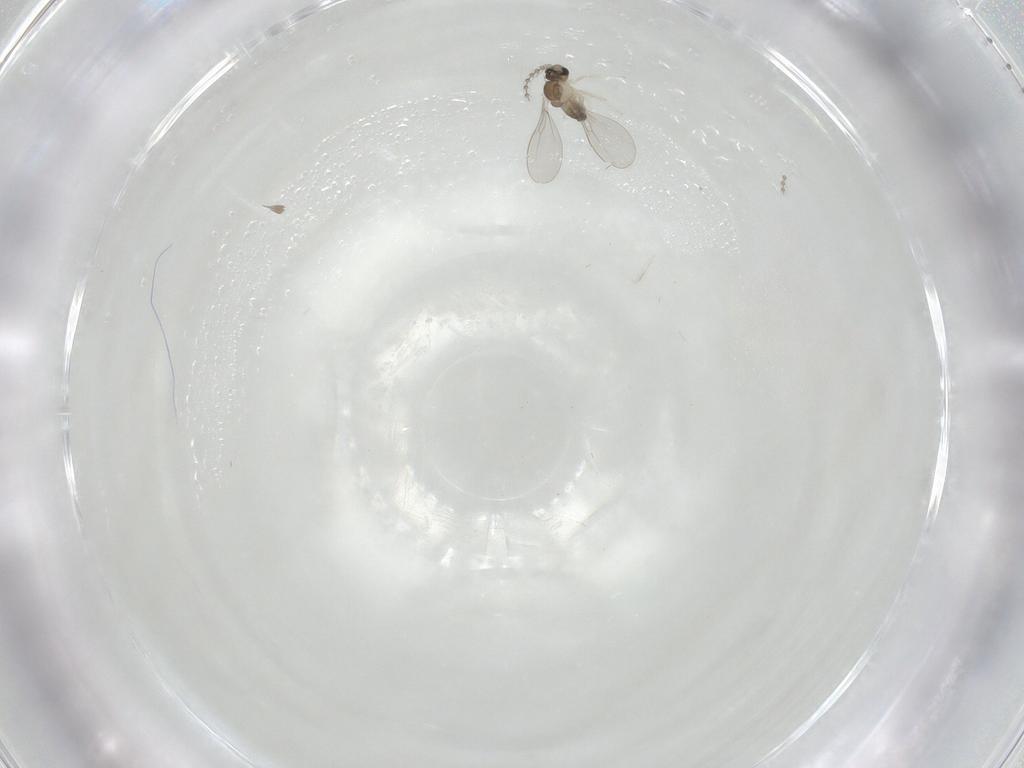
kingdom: Animalia
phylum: Arthropoda
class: Insecta
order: Diptera
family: Cecidomyiidae
